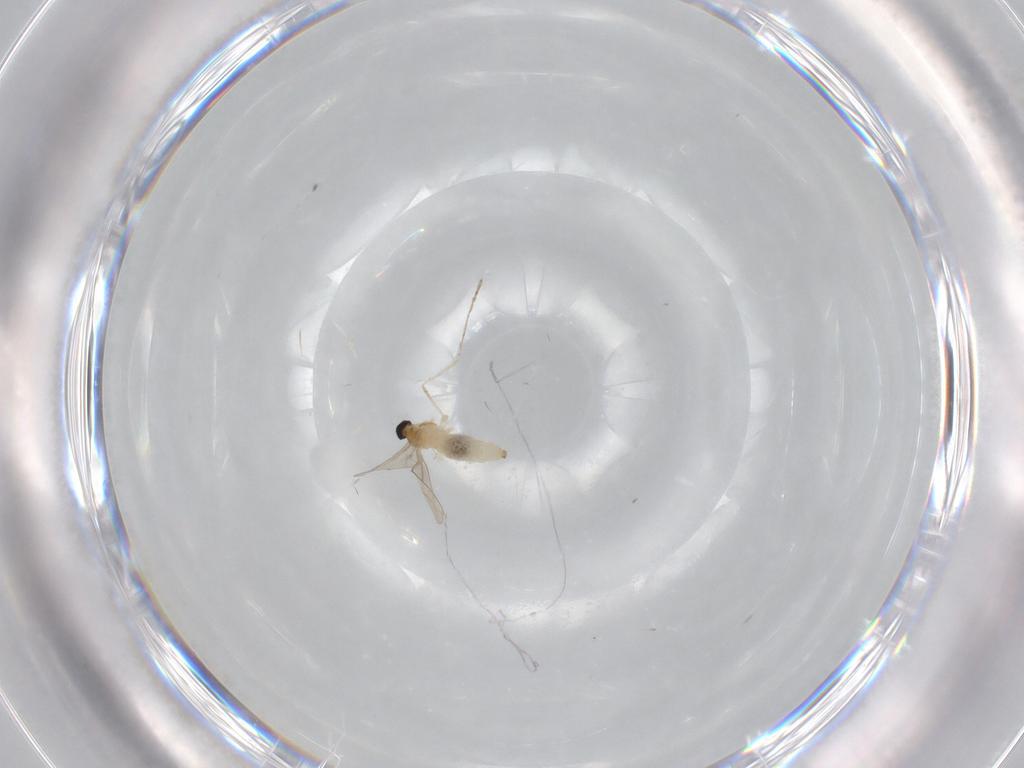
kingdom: Animalia
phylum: Arthropoda
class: Insecta
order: Diptera
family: Cecidomyiidae
